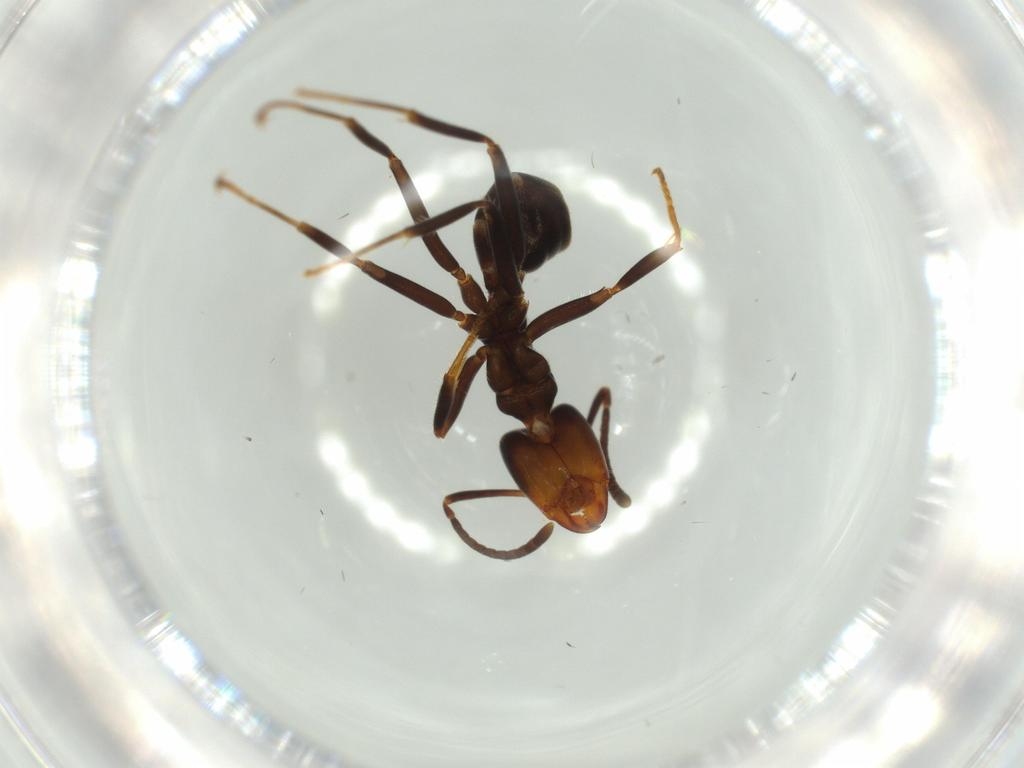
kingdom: Animalia
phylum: Arthropoda
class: Insecta
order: Hymenoptera
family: Formicidae
